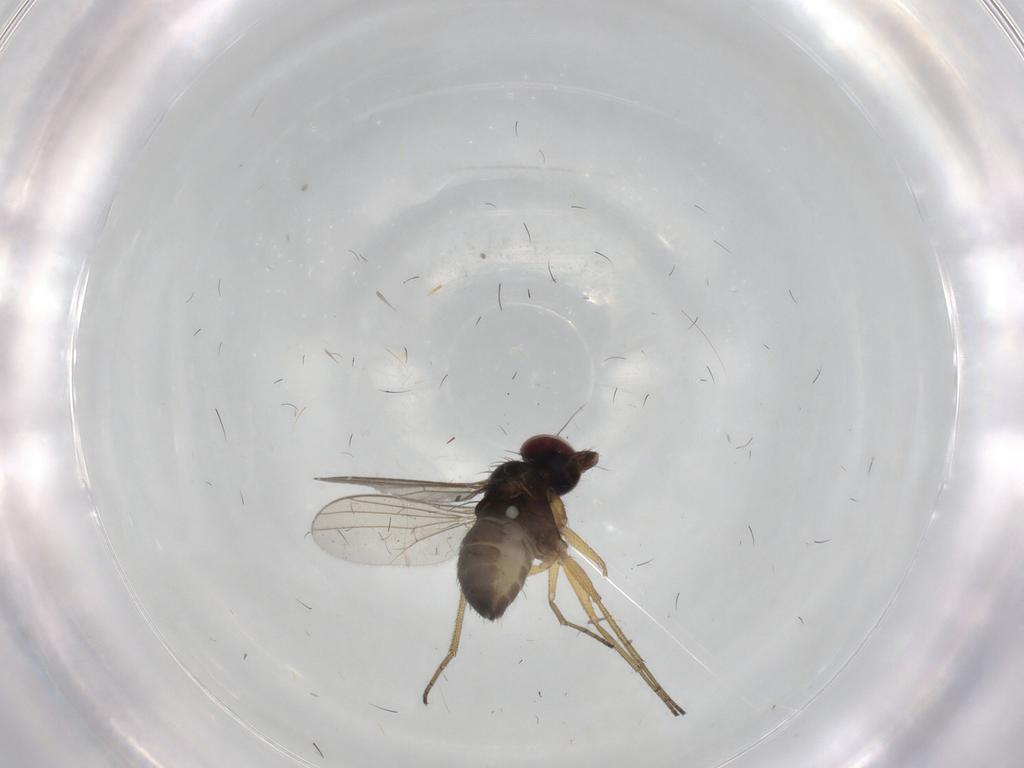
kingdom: Animalia
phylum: Arthropoda
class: Insecta
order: Diptera
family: Dolichopodidae
